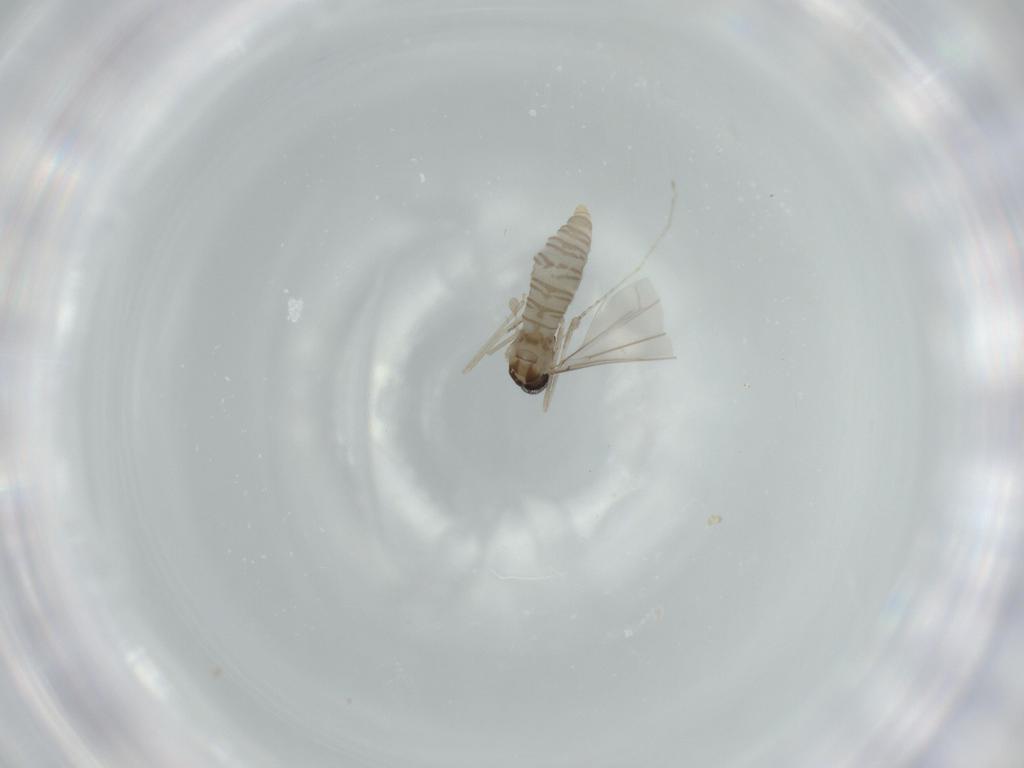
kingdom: Animalia
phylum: Arthropoda
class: Insecta
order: Diptera
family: Cecidomyiidae
